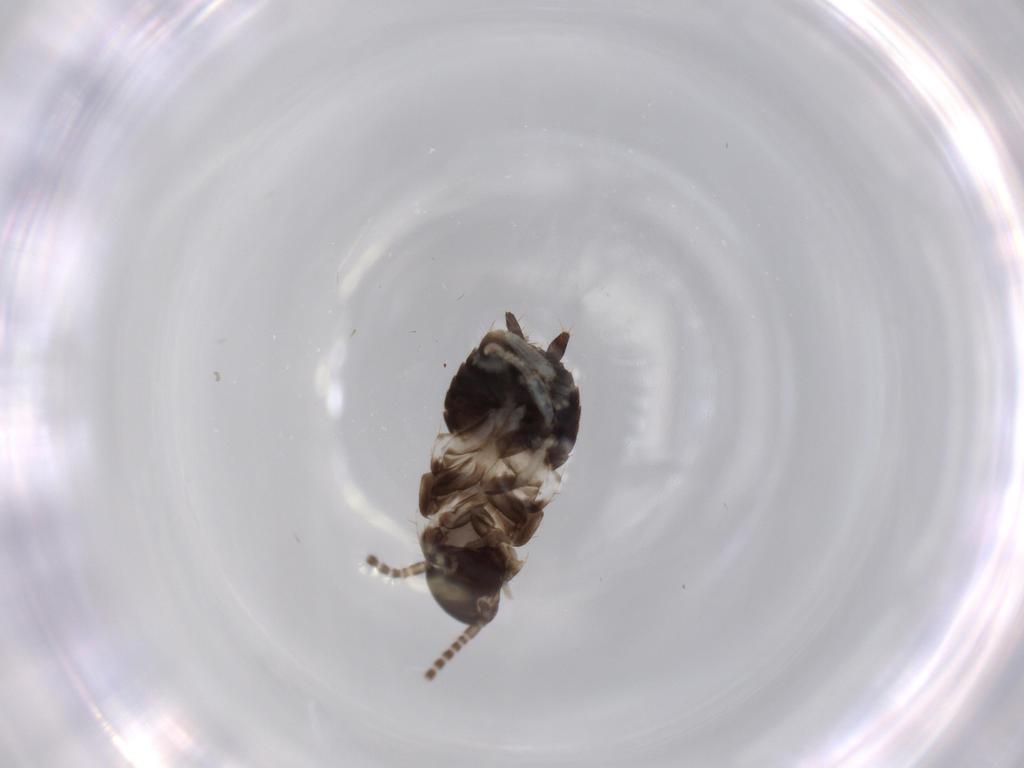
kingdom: Animalia
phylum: Arthropoda
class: Insecta
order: Blattodea
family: Ectobiidae
